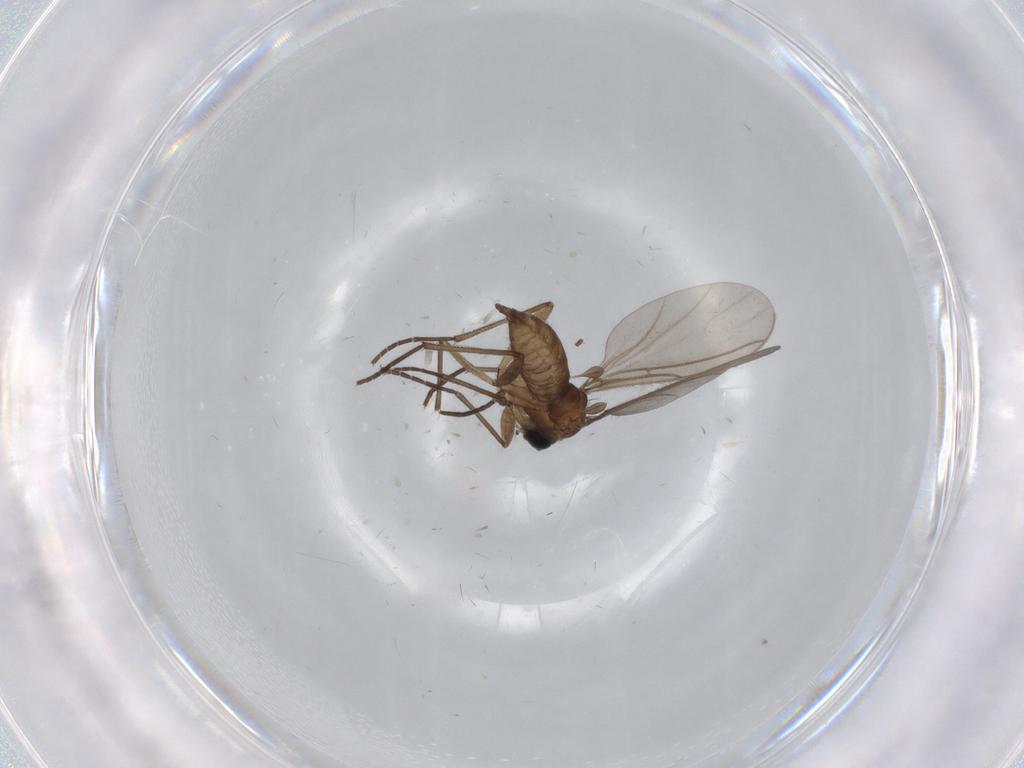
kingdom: Animalia
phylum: Arthropoda
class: Insecta
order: Diptera
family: Sciaridae
